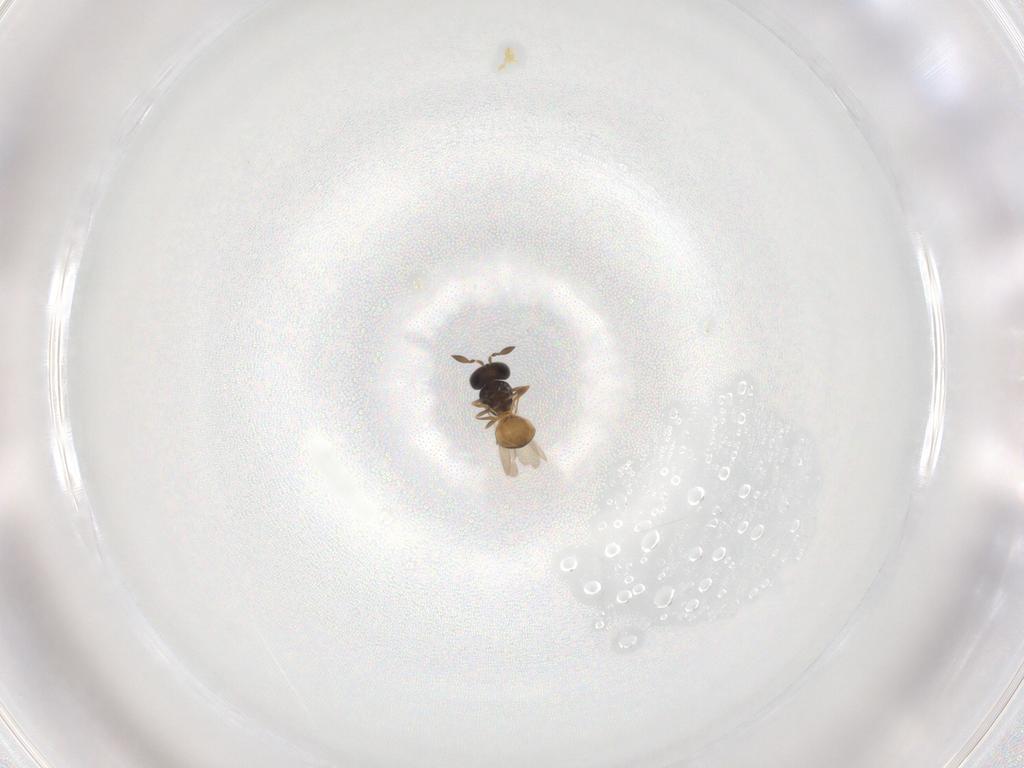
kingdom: Animalia
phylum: Arthropoda
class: Insecta
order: Hymenoptera
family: Scelionidae
